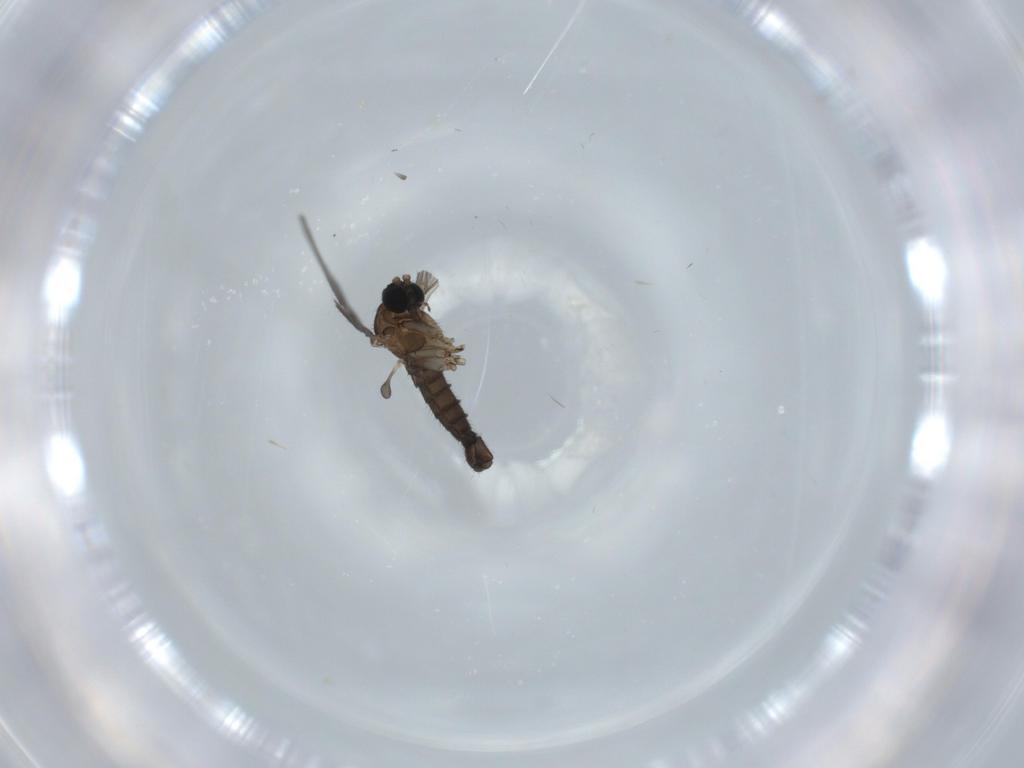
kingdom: Animalia
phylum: Arthropoda
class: Insecta
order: Diptera
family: Sciaridae
